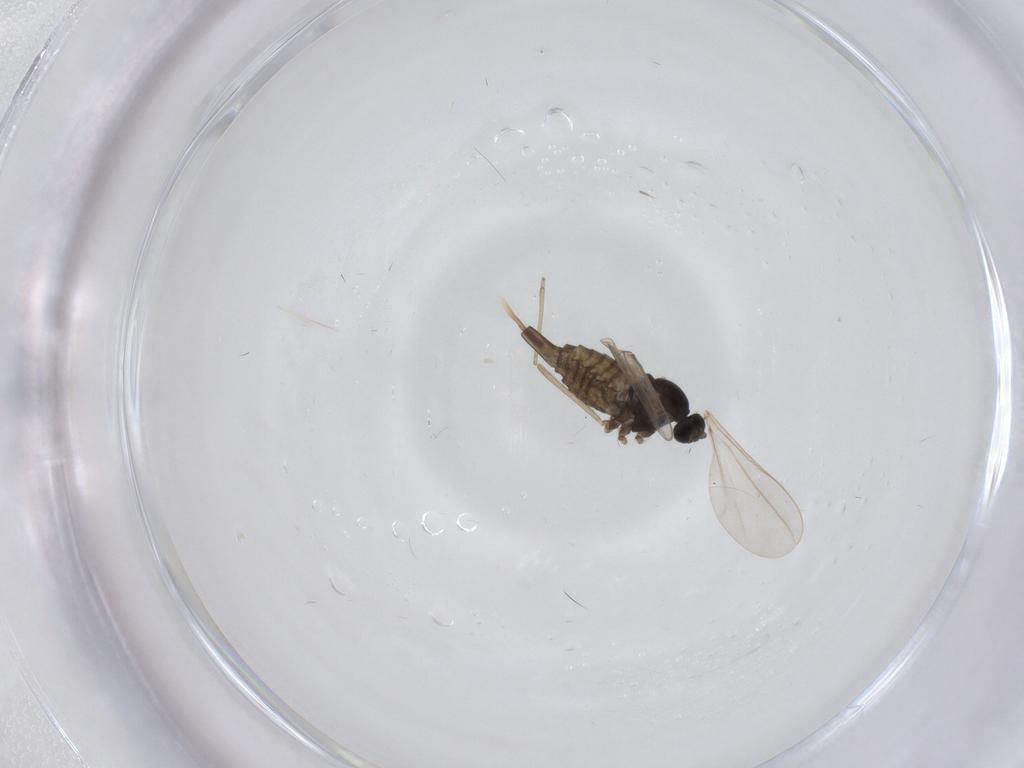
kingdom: Animalia
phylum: Arthropoda
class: Insecta
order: Diptera
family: Cecidomyiidae
